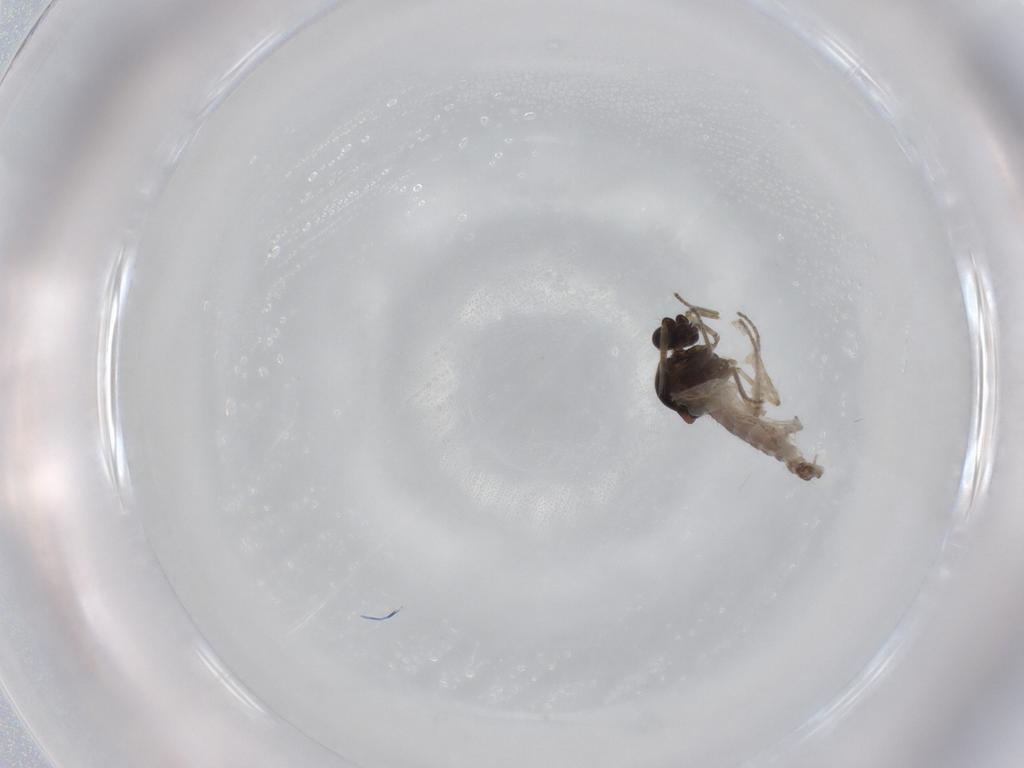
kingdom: Animalia
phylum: Arthropoda
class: Insecta
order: Diptera
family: Ceratopogonidae
